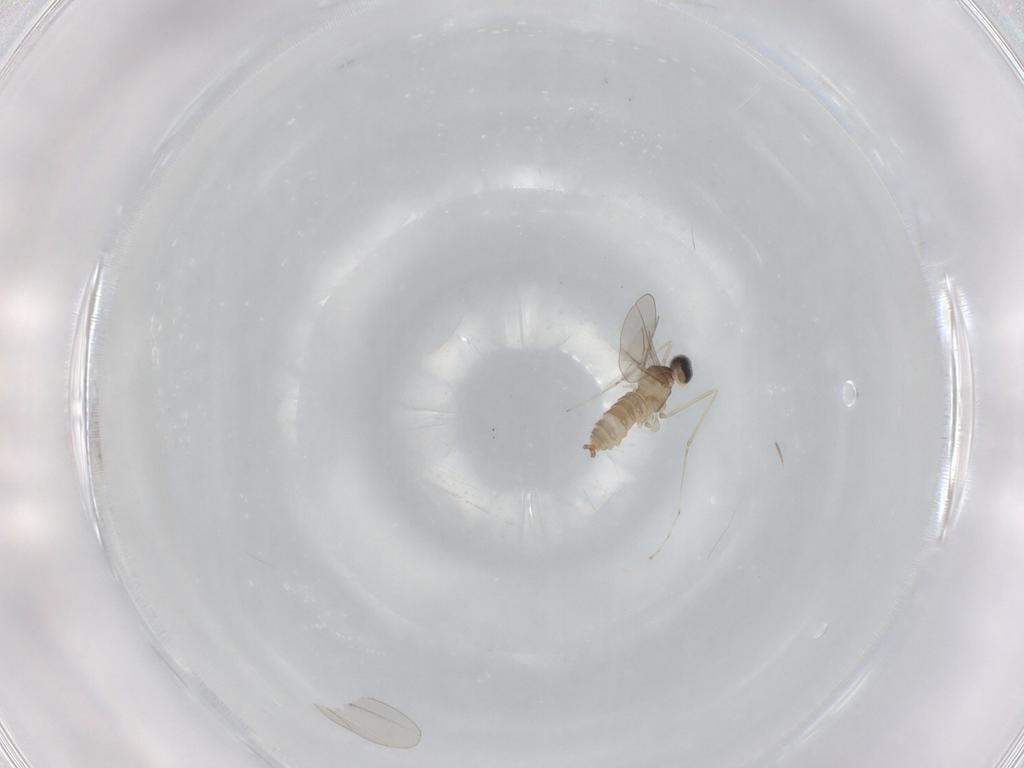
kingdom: Animalia
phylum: Arthropoda
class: Insecta
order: Diptera
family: Cecidomyiidae
